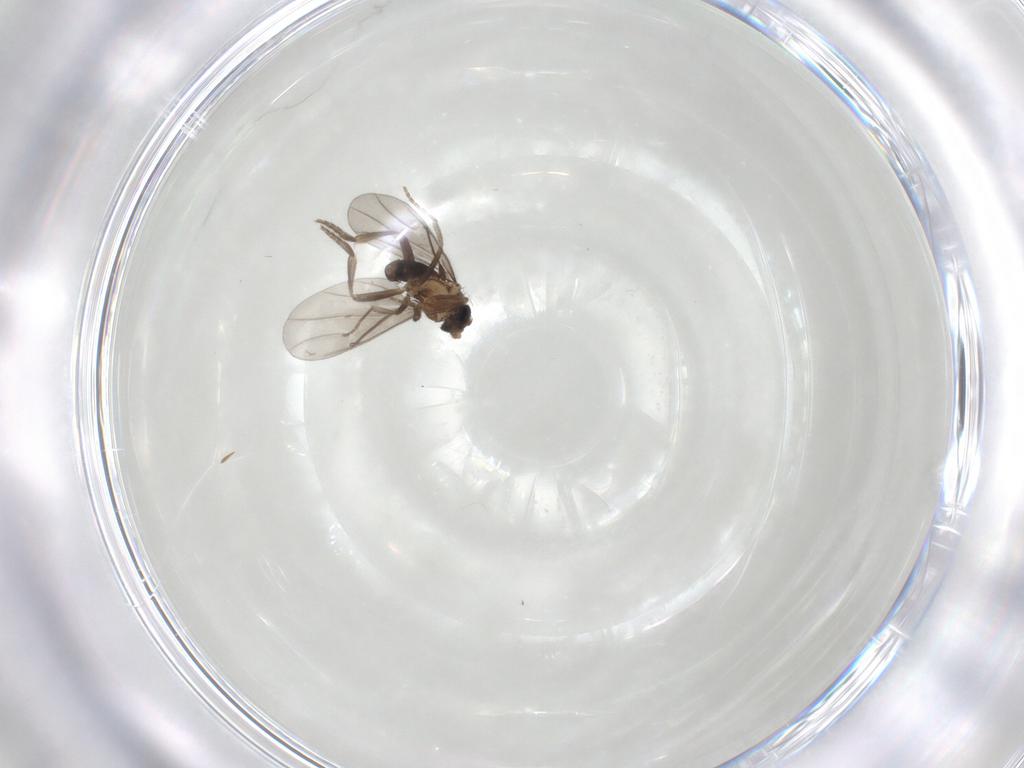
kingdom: Animalia
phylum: Arthropoda
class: Insecta
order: Diptera
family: Phoridae
